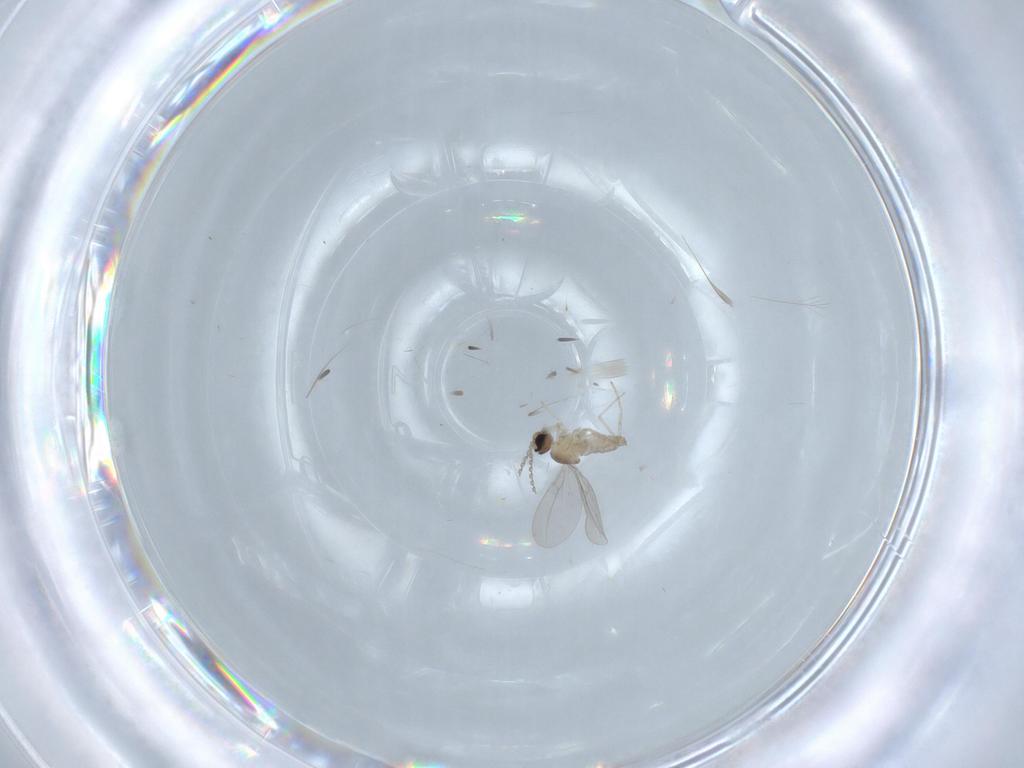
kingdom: Animalia
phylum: Arthropoda
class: Insecta
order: Diptera
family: Cecidomyiidae
